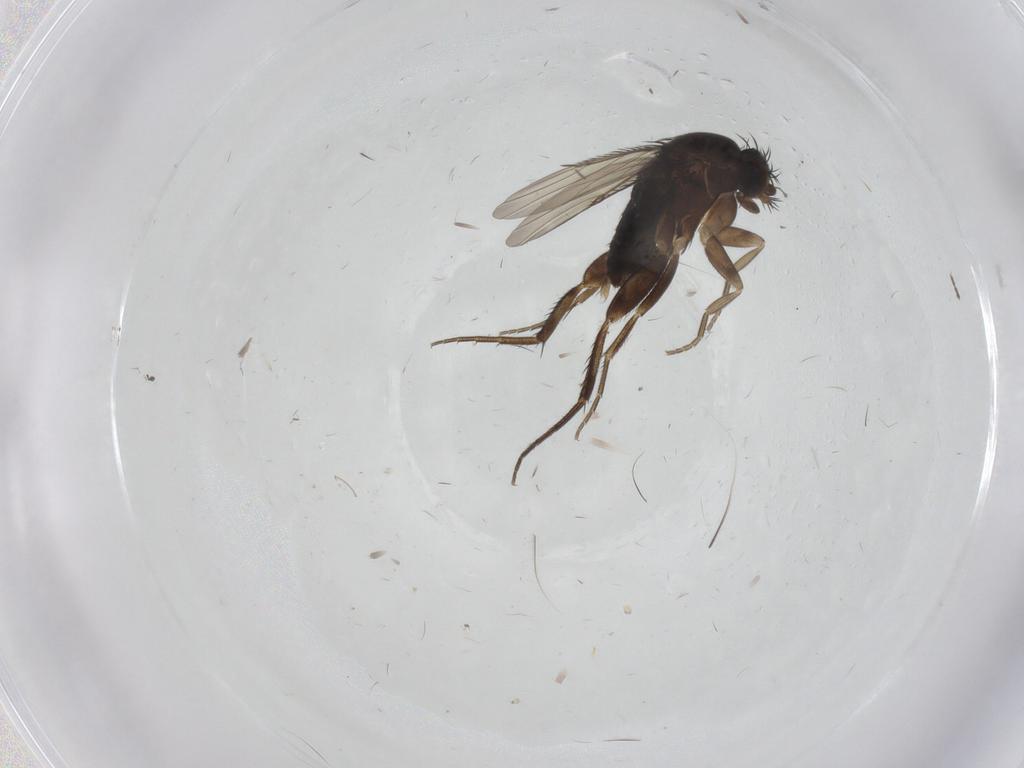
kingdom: Animalia
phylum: Arthropoda
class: Insecta
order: Diptera
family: Phoridae
